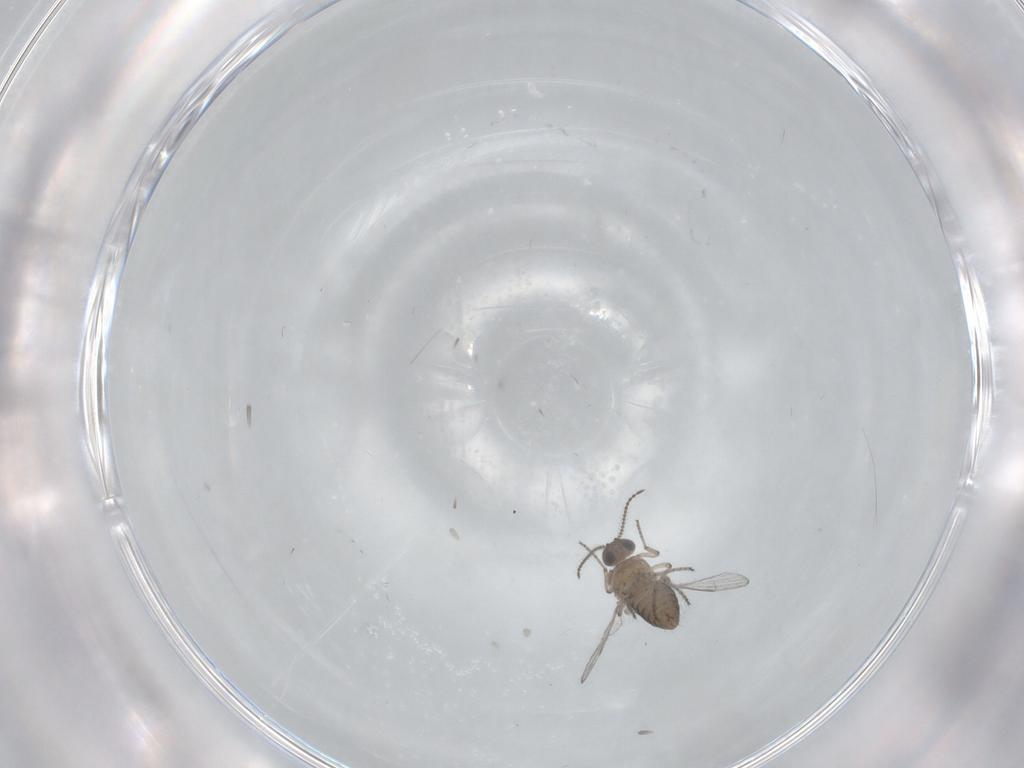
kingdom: Animalia
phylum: Arthropoda
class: Insecta
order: Diptera
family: Ceratopogonidae
